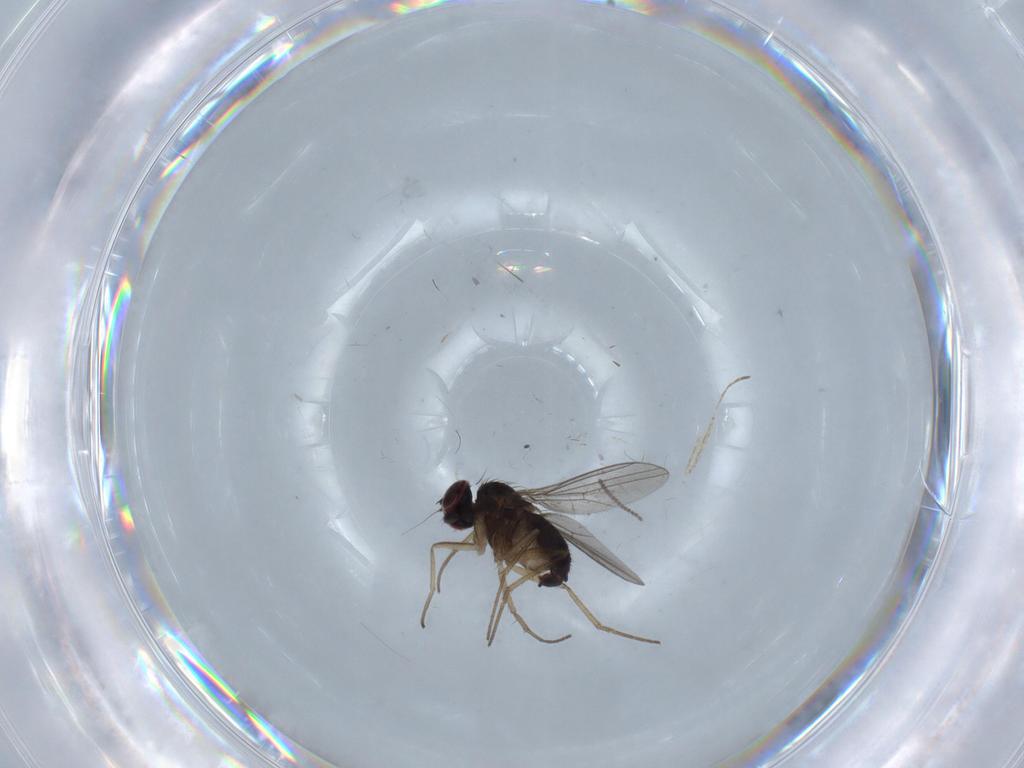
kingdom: Animalia
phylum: Arthropoda
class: Insecta
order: Diptera
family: Dolichopodidae
